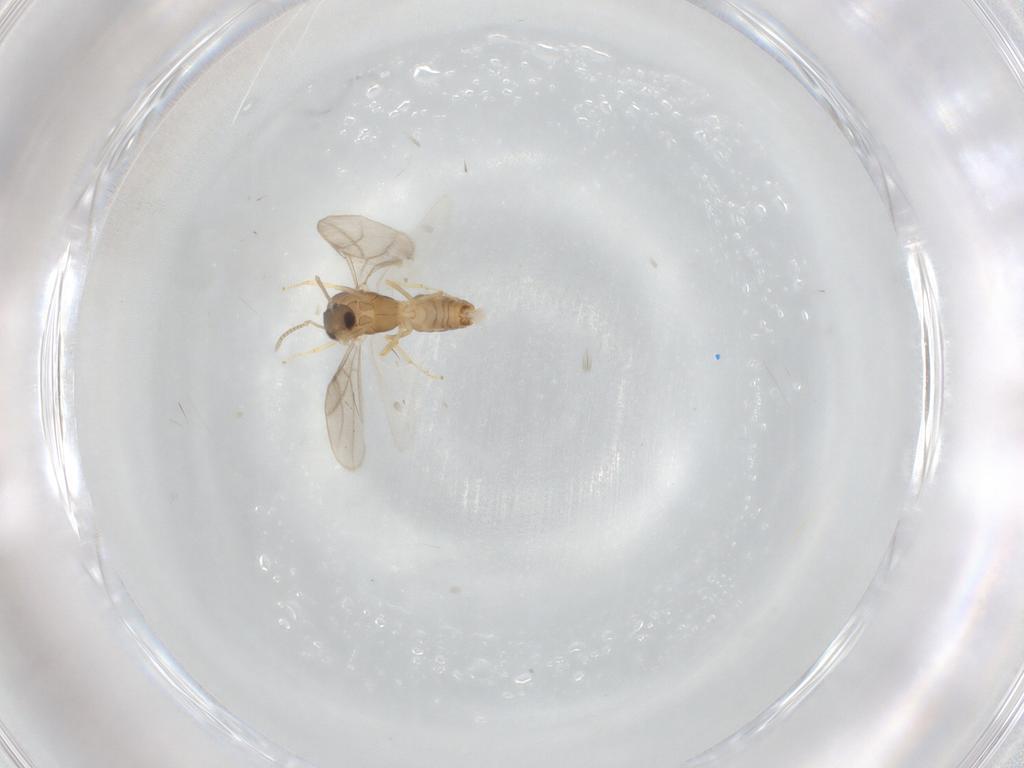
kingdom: Animalia
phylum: Arthropoda
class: Insecta
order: Hymenoptera
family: Formicidae
